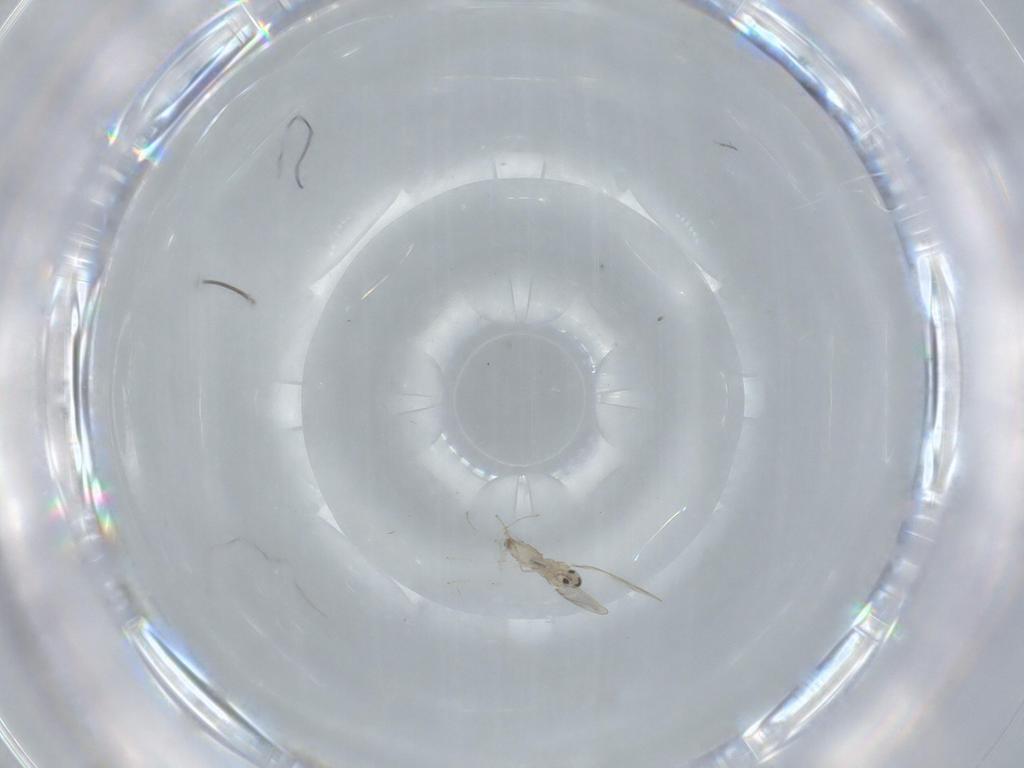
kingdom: Animalia
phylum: Arthropoda
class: Insecta
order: Diptera
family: Cecidomyiidae
